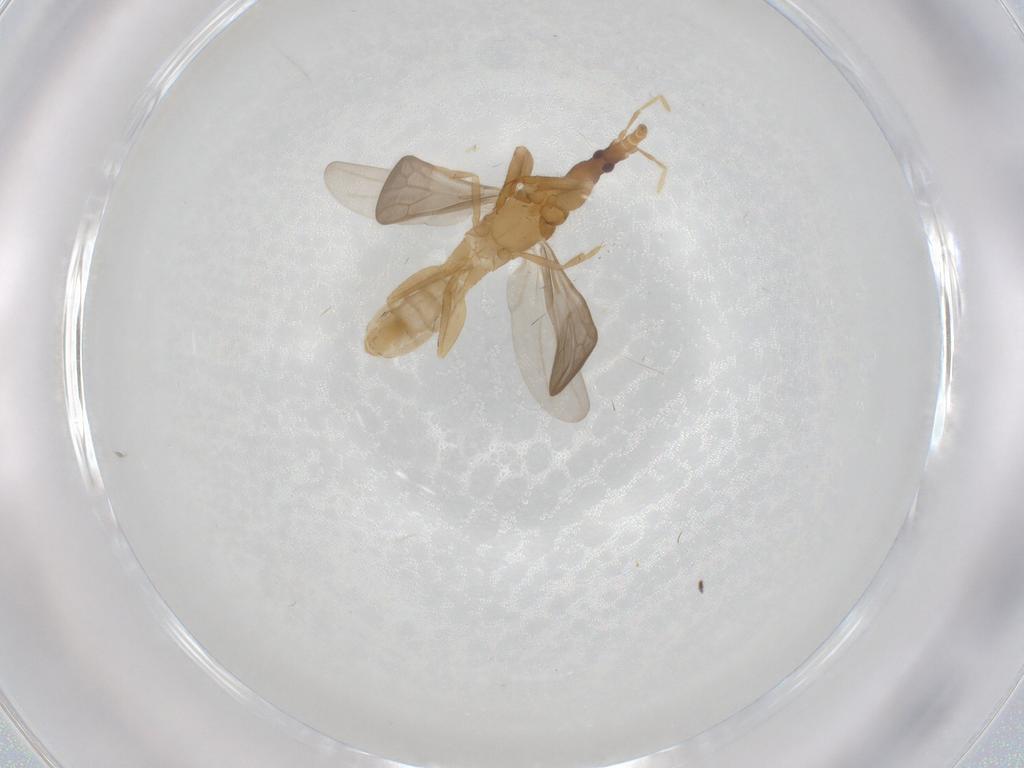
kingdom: Animalia
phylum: Arthropoda
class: Insecta
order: Hemiptera
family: Enicocephalidae
